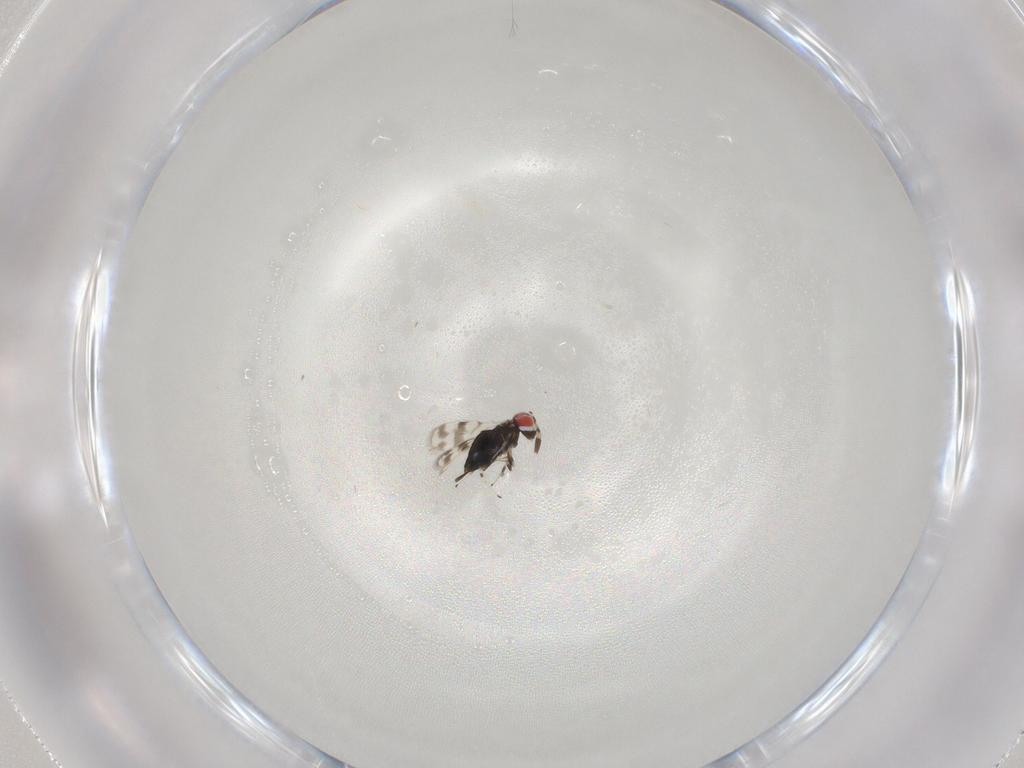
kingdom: Animalia
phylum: Arthropoda
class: Insecta
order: Hymenoptera
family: Azotidae
